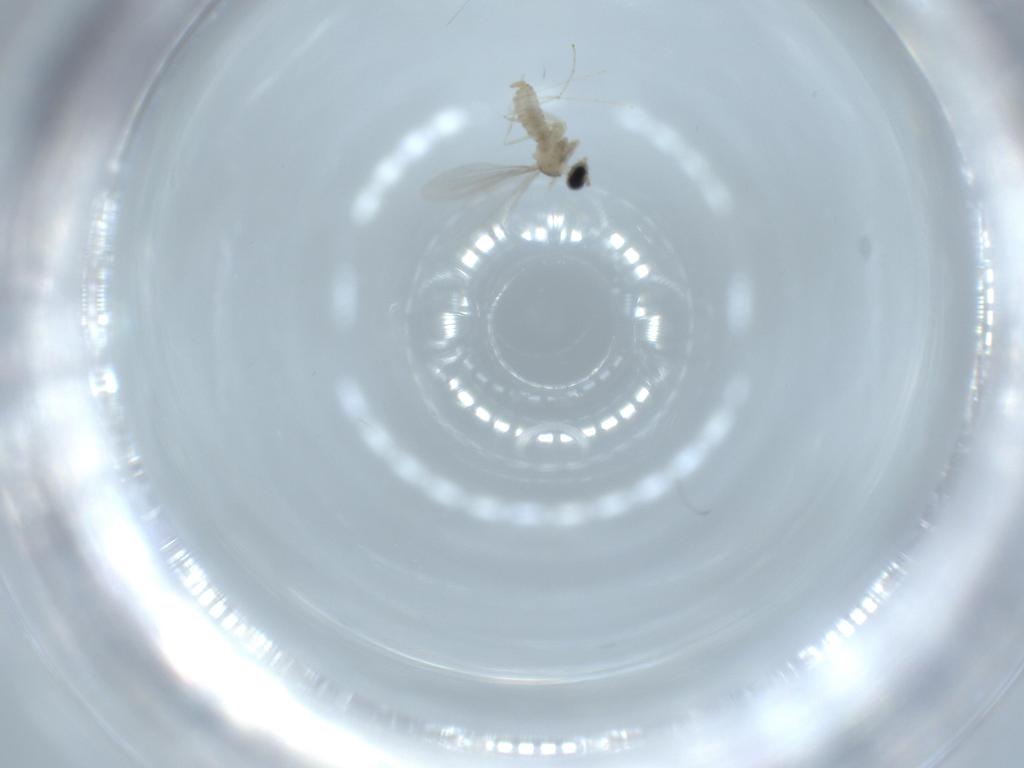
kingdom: Animalia
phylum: Arthropoda
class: Insecta
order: Diptera
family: Cecidomyiidae
